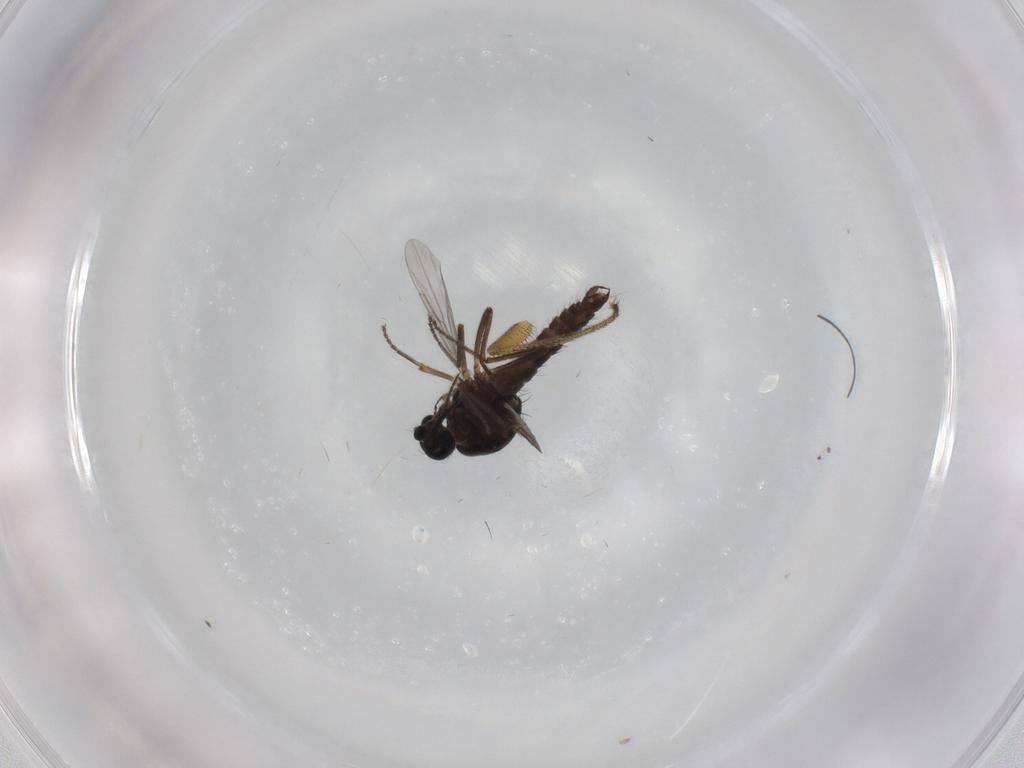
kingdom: Animalia
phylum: Arthropoda
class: Insecta
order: Diptera
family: Ceratopogonidae
